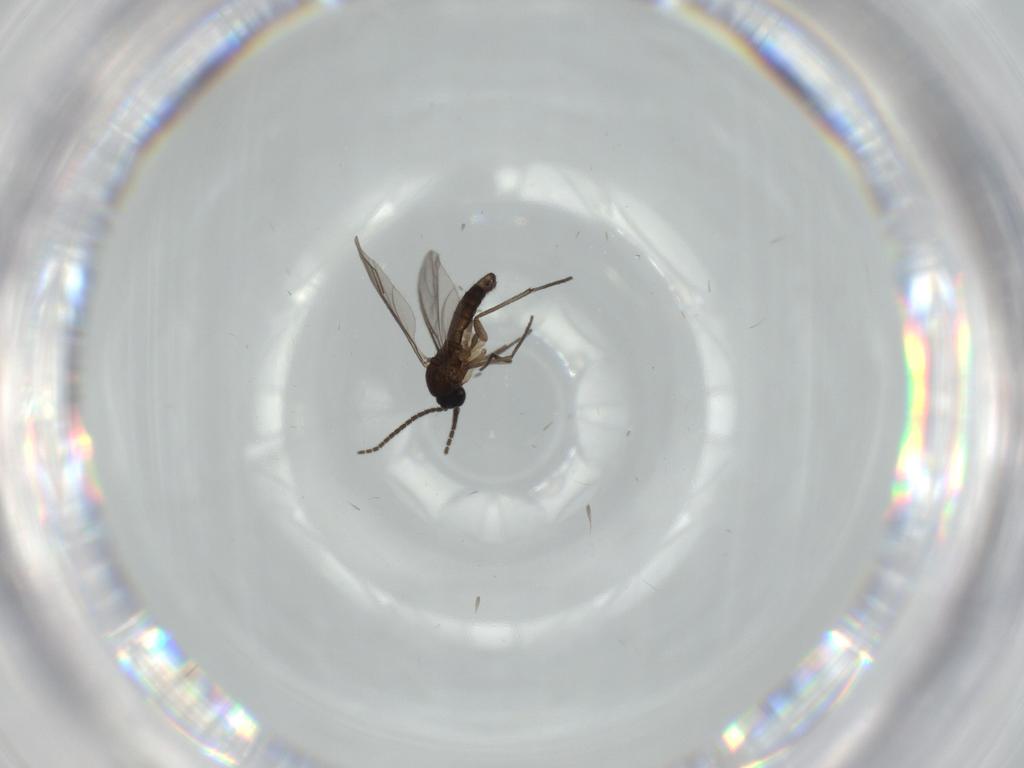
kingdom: Animalia
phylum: Arthropoda
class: Insecta
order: Diptera
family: Sciaridae
